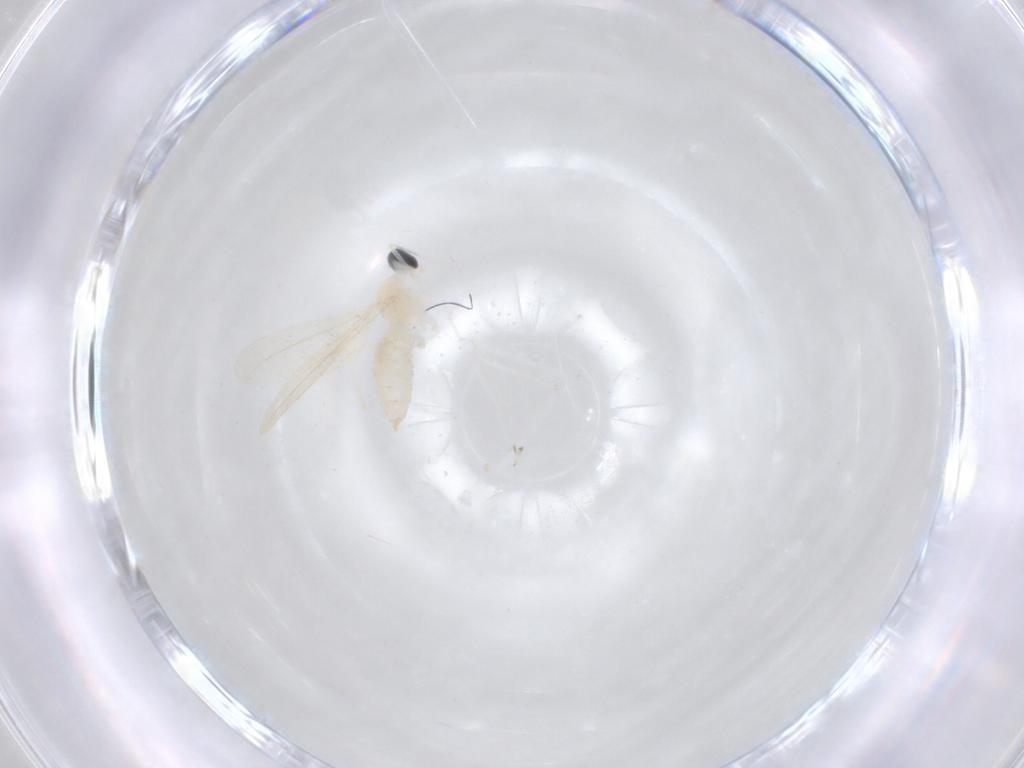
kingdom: Animalia
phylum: Arthropoda
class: Insecta
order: Diptera
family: Cecidomyiidae
